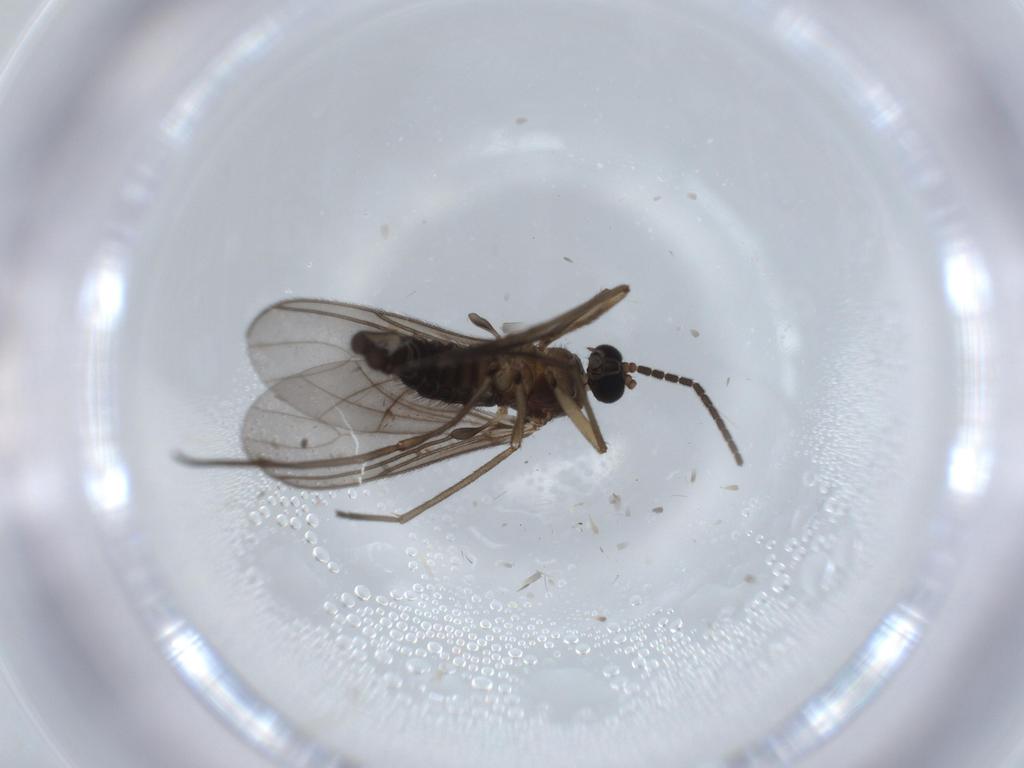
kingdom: Animalia
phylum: Arthropoda
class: Insecta
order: Diptera
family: Sciaridae
